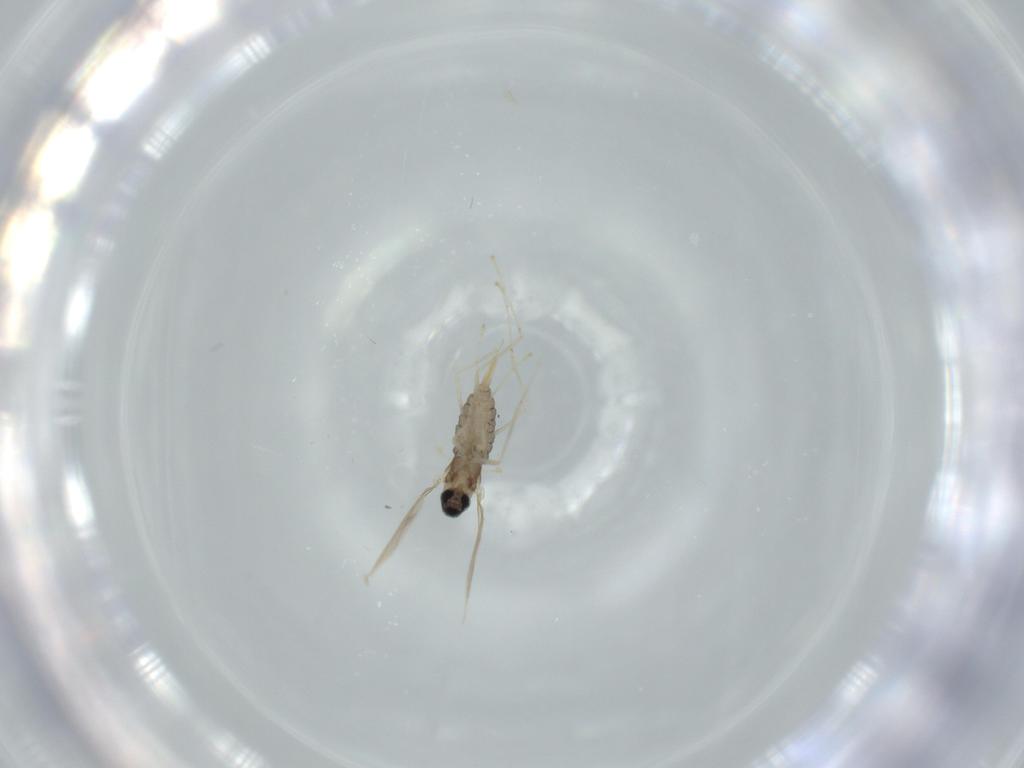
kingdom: Animalia
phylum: Arthropoda
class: Insecta
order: Diptera
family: Cecidomyiidae
